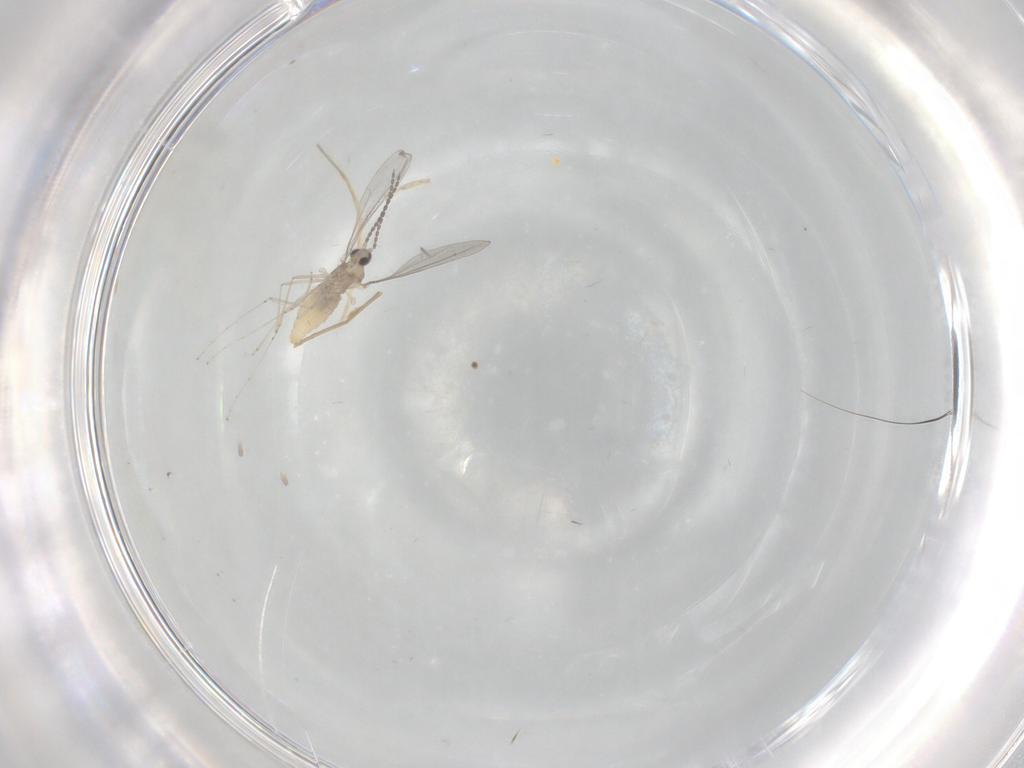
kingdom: Animalia
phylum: Arthropoda
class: Insecta
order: Diptera
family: Cecidomyiidae
